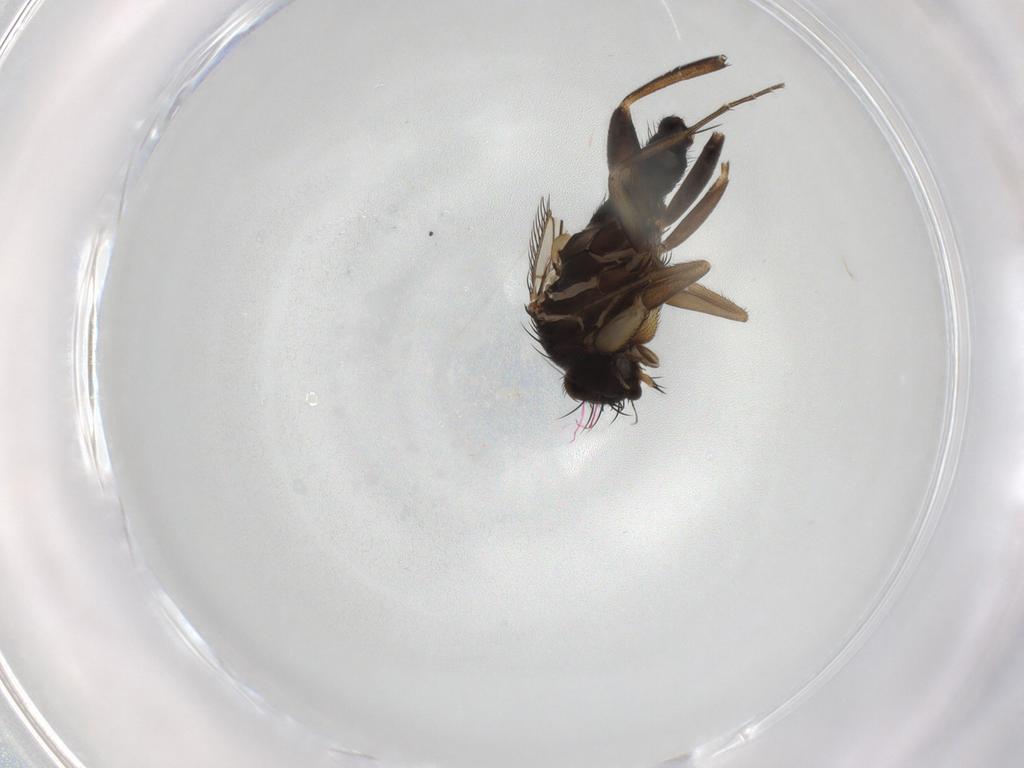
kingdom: Animalia
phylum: Arthropoda
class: Insecta
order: Diptera
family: Phoridae
